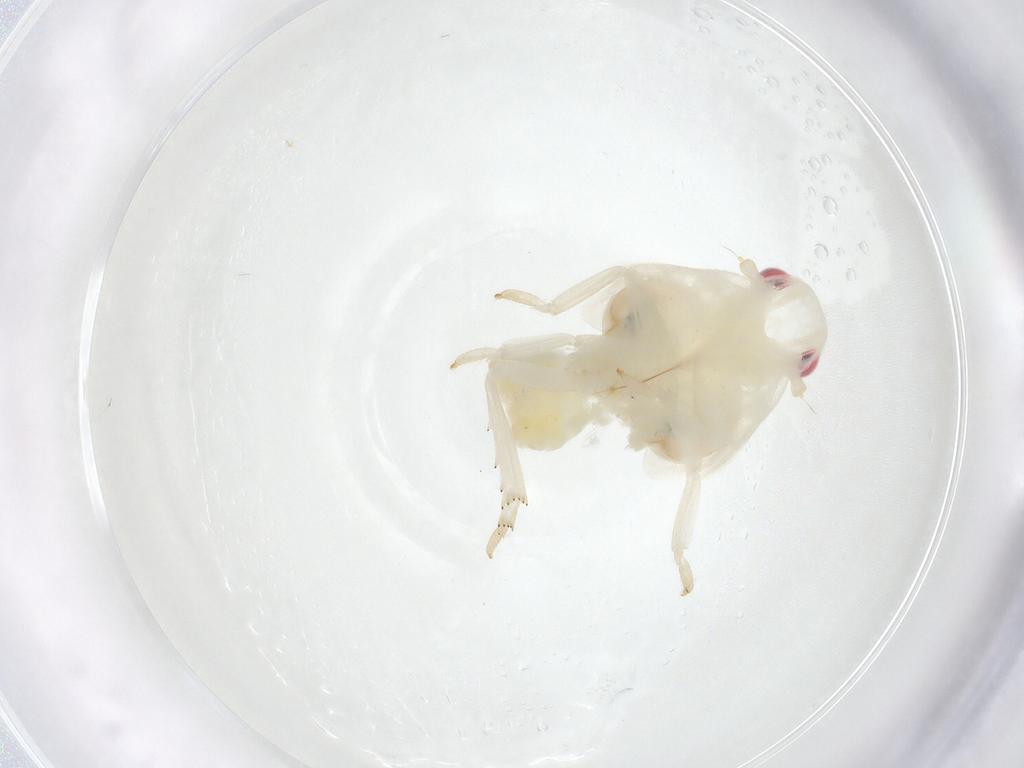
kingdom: Animalia
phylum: Arthropoda
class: Insecta
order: Hemiptera
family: Flatidae
